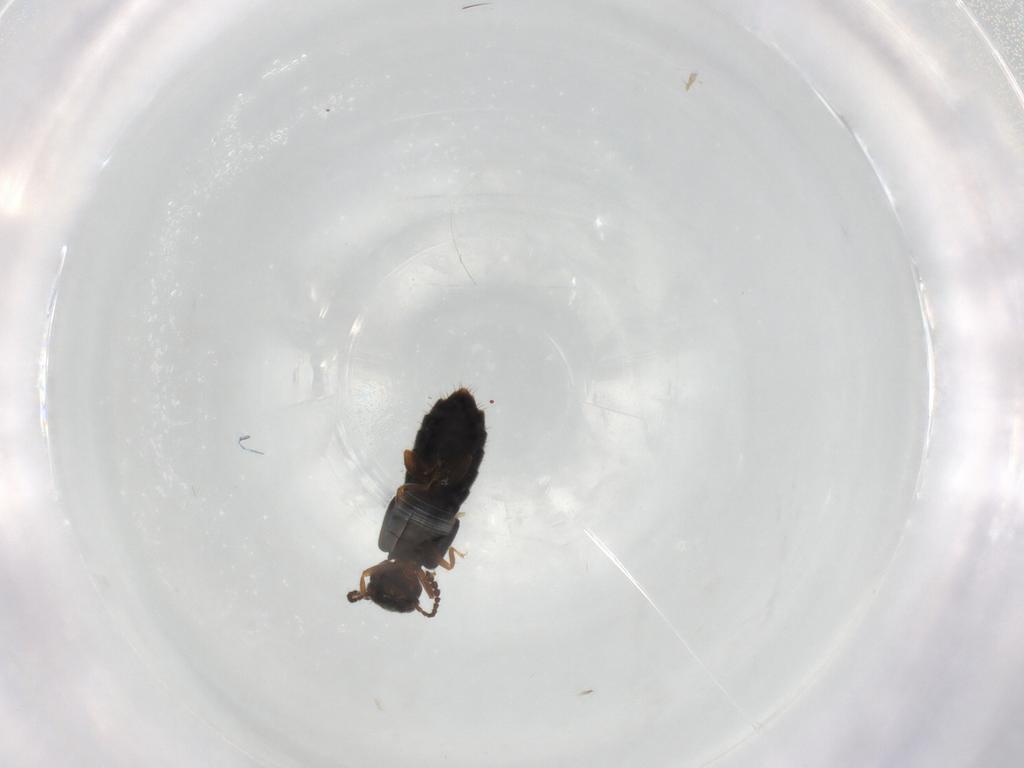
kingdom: Animalia
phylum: Arthropoda
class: Insecta
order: Coleoptera
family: Staphylinidae
